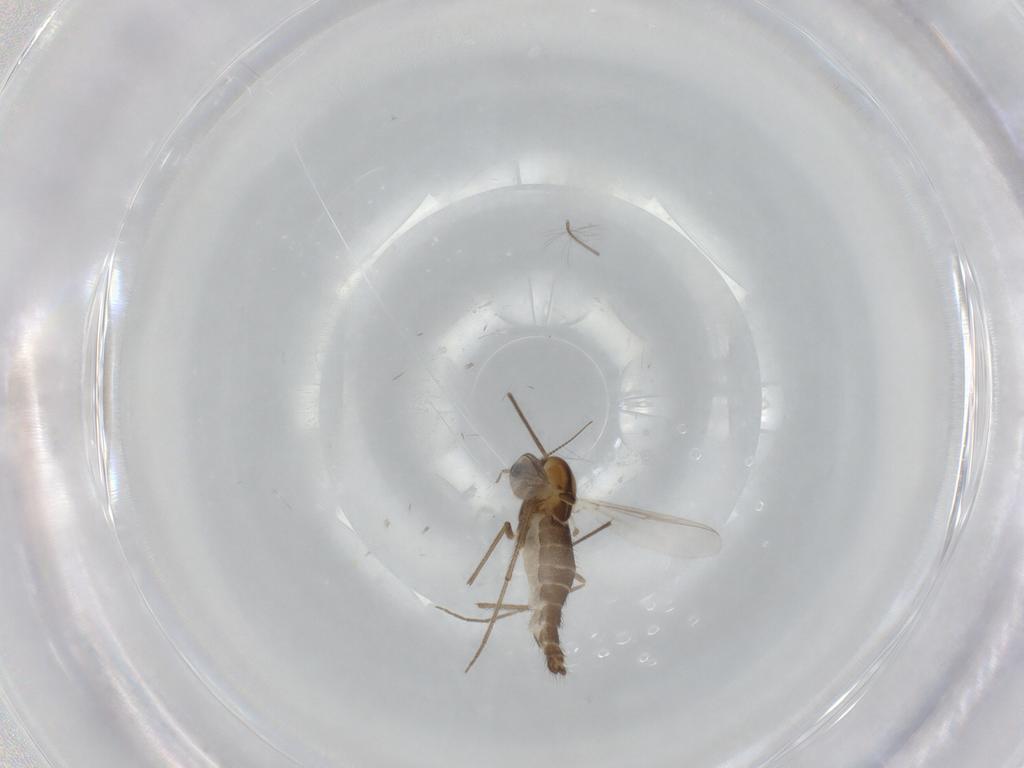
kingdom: Animalia
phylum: Arthropoda
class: Insecta
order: Diptera
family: Chironomidae
